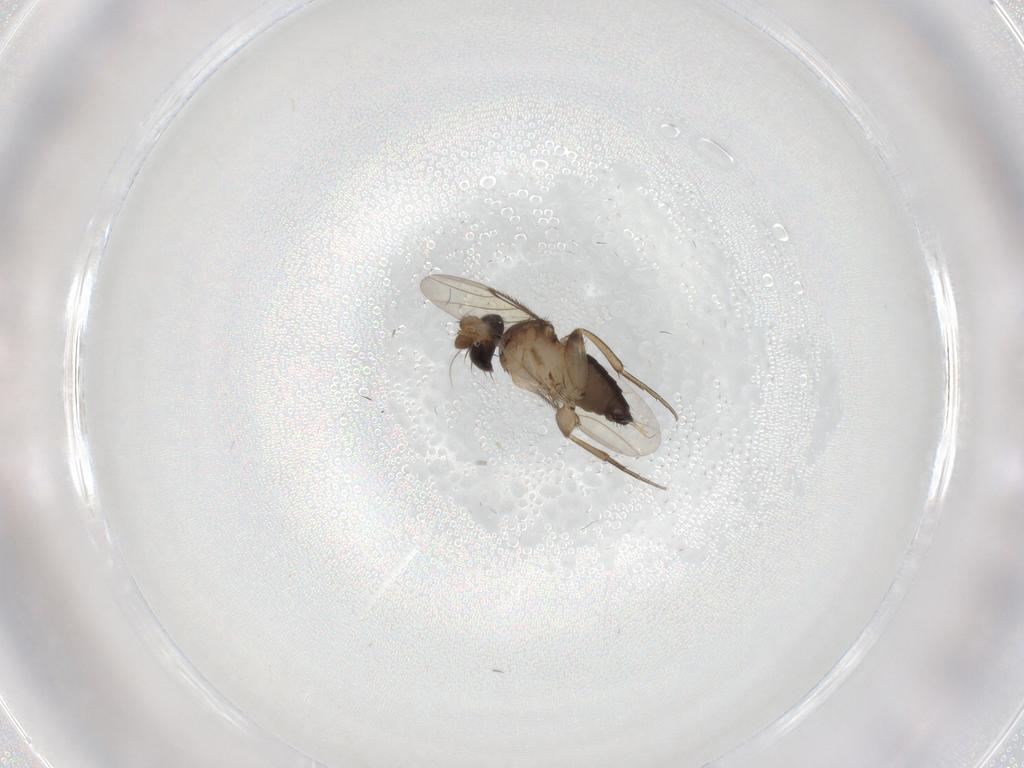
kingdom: Animalia
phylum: Arthropoda
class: Insecta
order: Diptera
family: Sphaeroceridae
